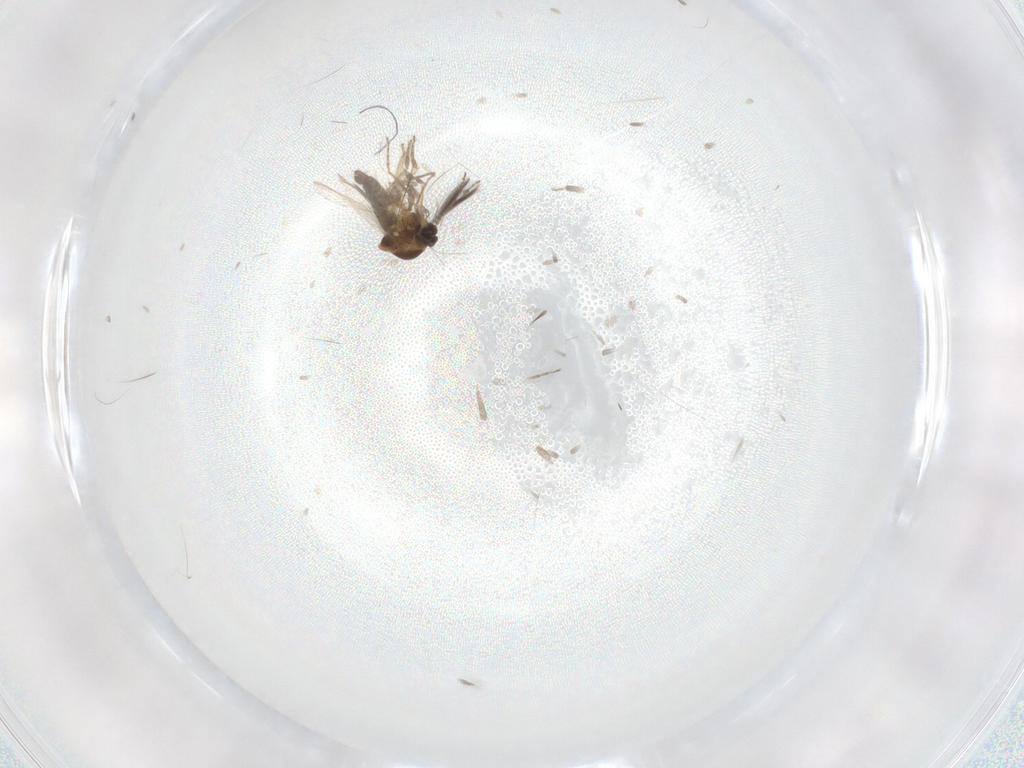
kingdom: Animalia
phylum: Arthropoda
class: Insecta
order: Diptera
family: Ceratopogonidae
